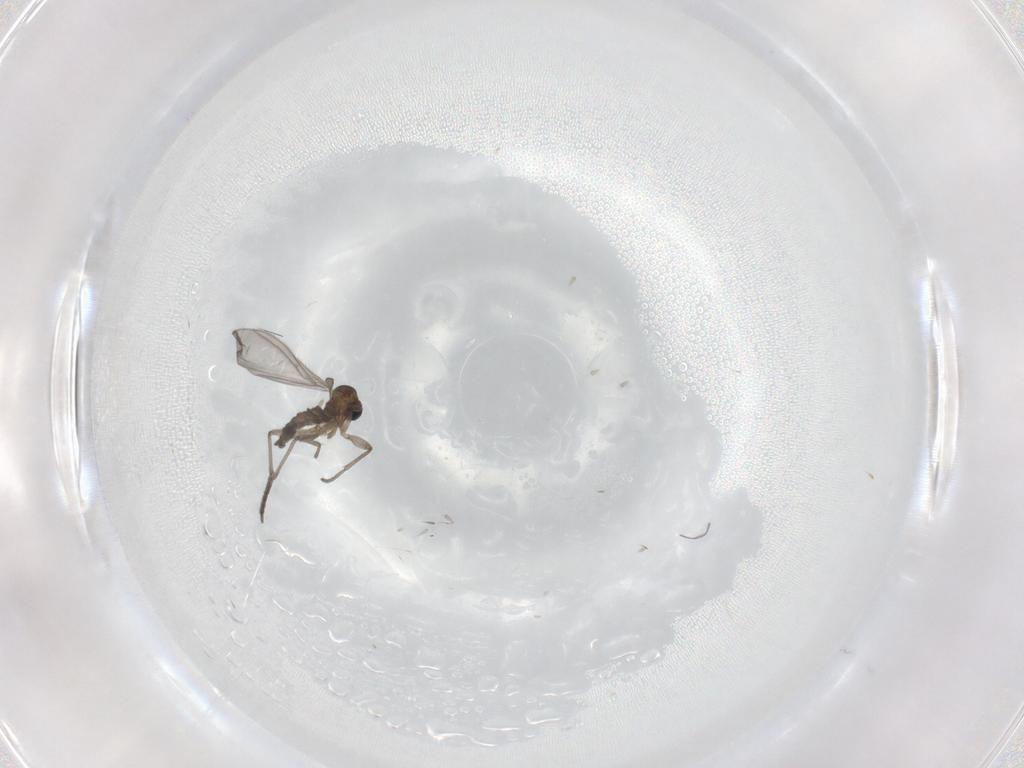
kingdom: Animalia
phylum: Arthropoda
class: Insecta
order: Diptera
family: Sciaridae
